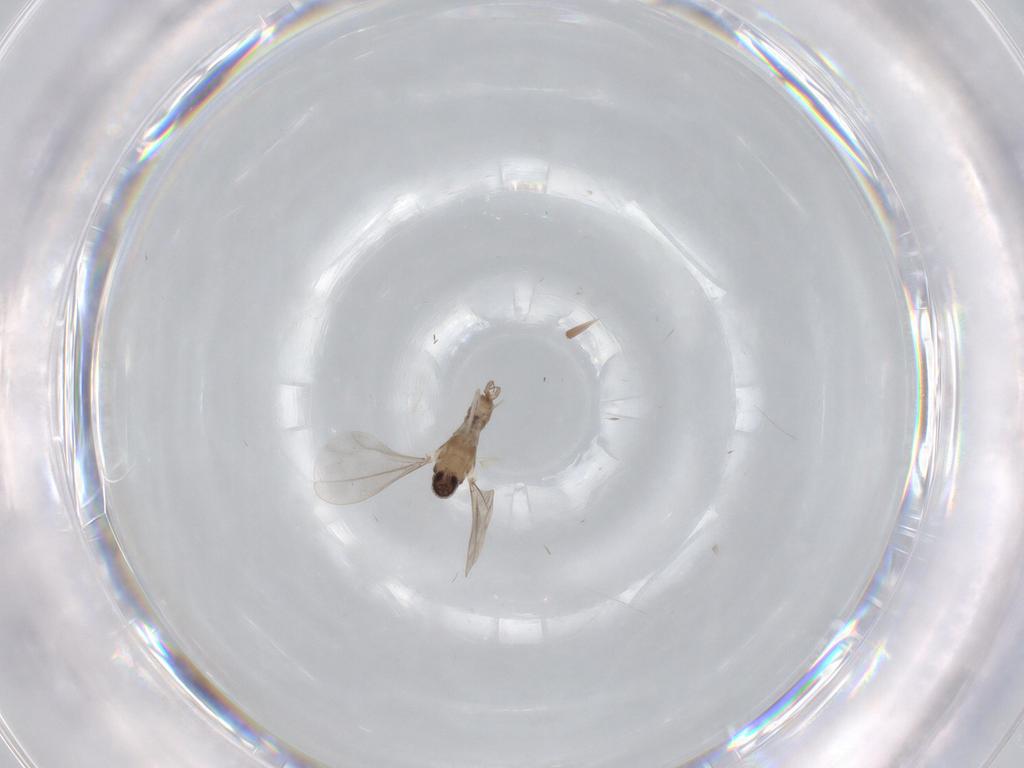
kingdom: Animalia
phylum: Arthropoda
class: Insecta
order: Diptera
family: Cecidomyiidae
